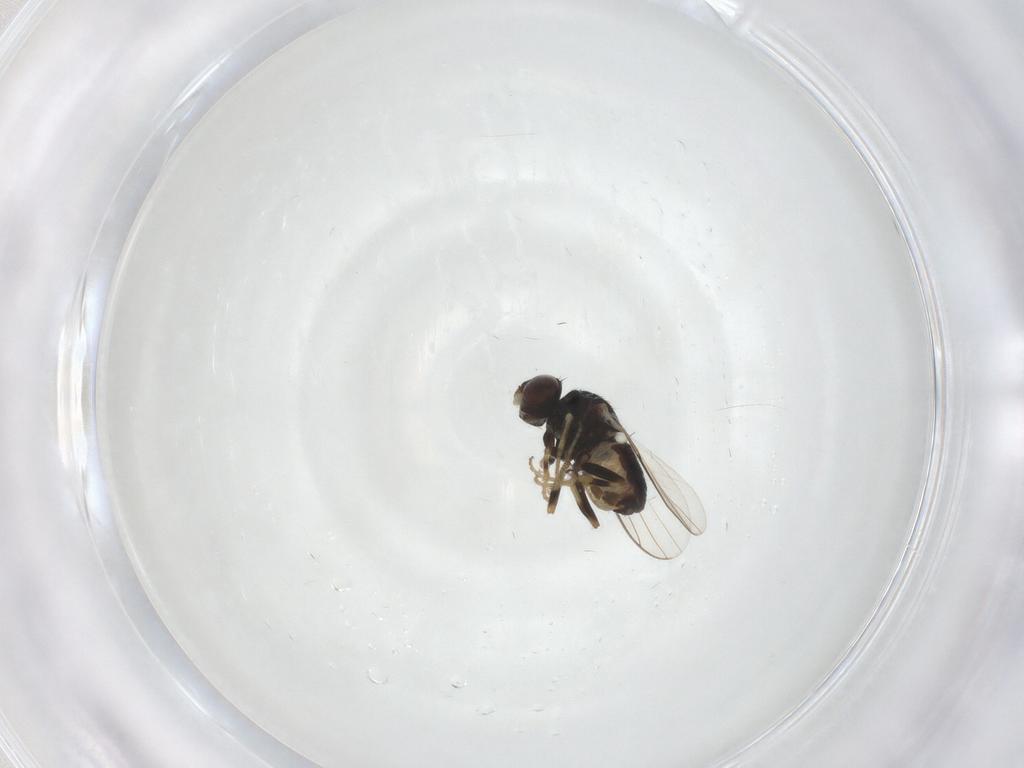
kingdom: Animalia
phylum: Arthropoda
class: Insecta
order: Diptera
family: Chloropidae
